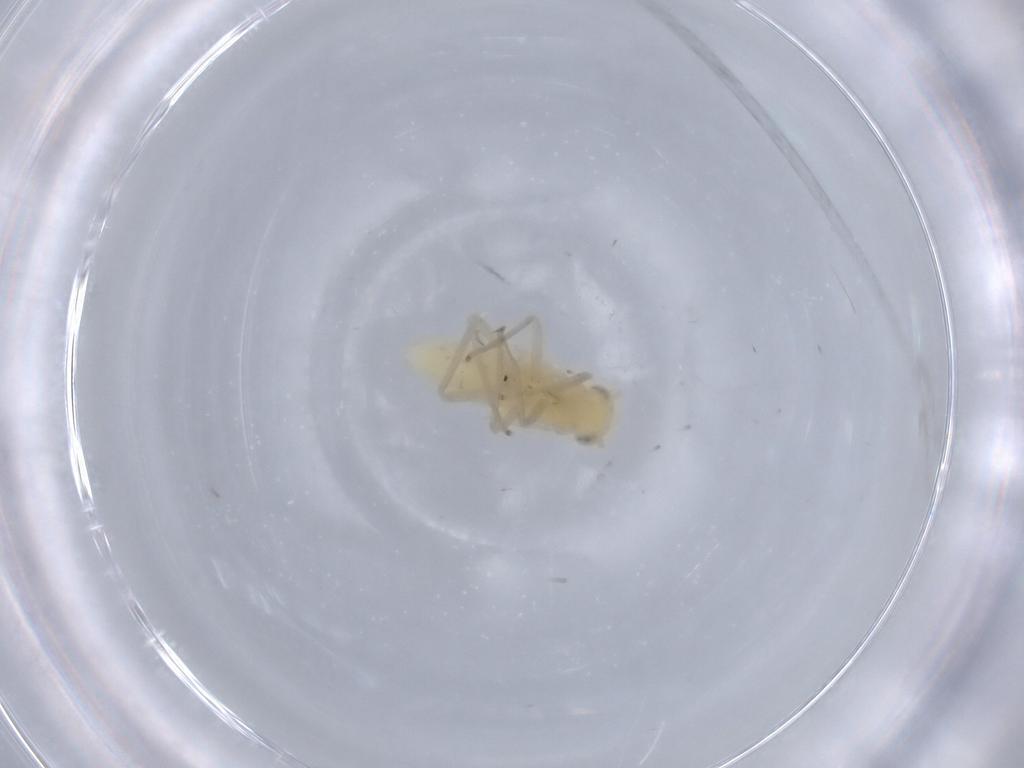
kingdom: Animalia
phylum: Arthropoda
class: Insecta
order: Hemiptera
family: Cicadellidae
